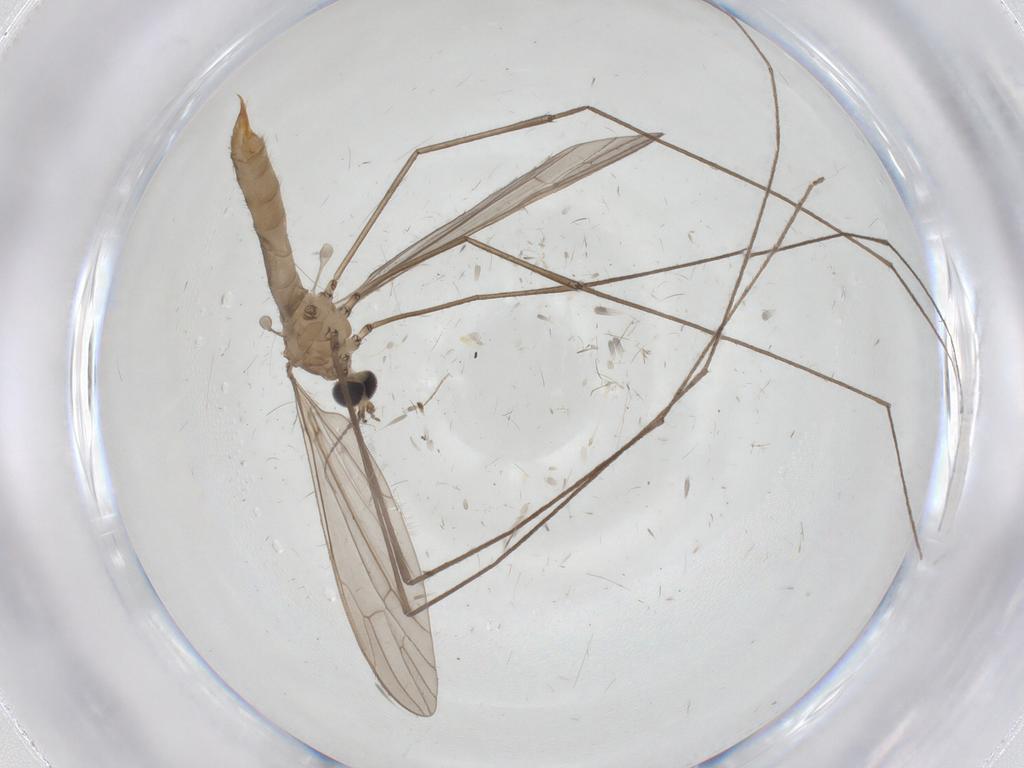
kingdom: Animalia
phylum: Arthropoda
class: Insecta
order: Diptera
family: Limoniidae
